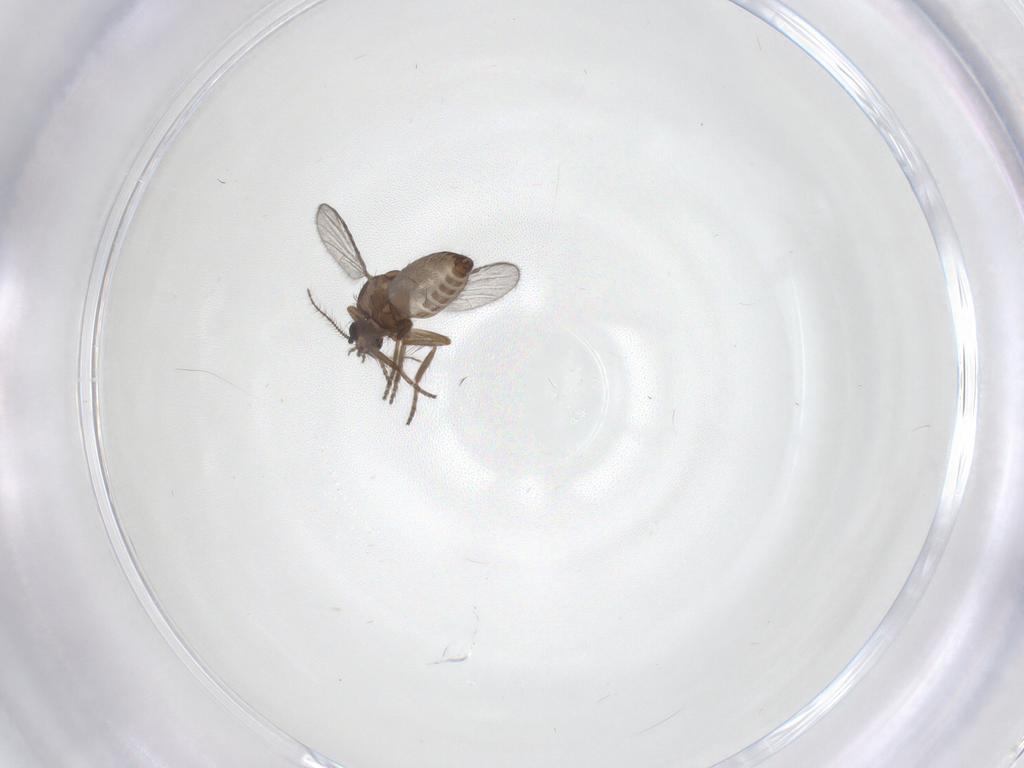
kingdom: Animalia
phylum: Arthropoda
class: Insecta
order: Diptera
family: Cecidomyiidae
